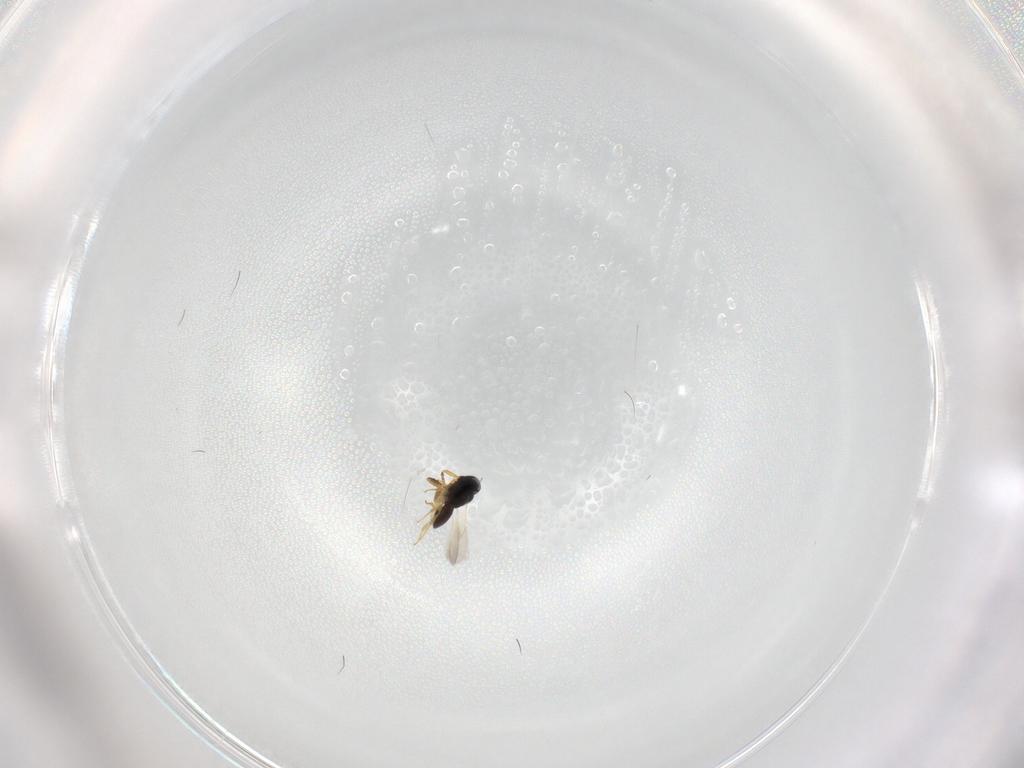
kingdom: Animalia
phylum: Arthropoda
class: Insecta
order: Hymenoptera
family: Scelionidae
